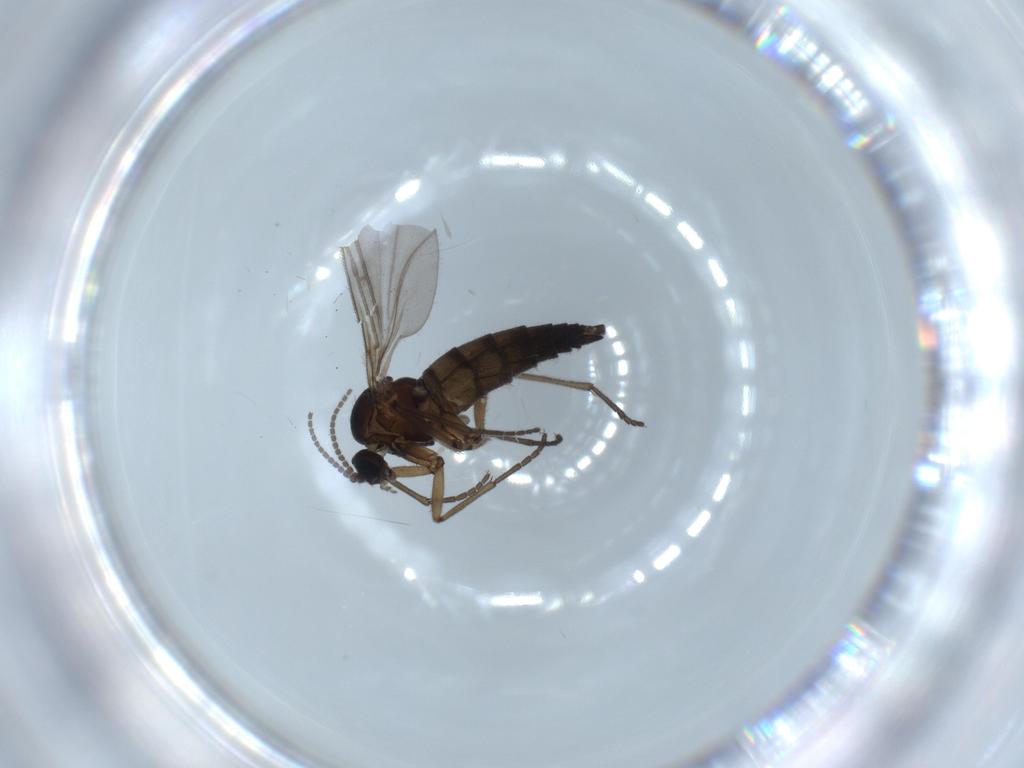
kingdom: Animalia
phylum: Arthropoda
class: Insecta
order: Diptera
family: Sciaridae
